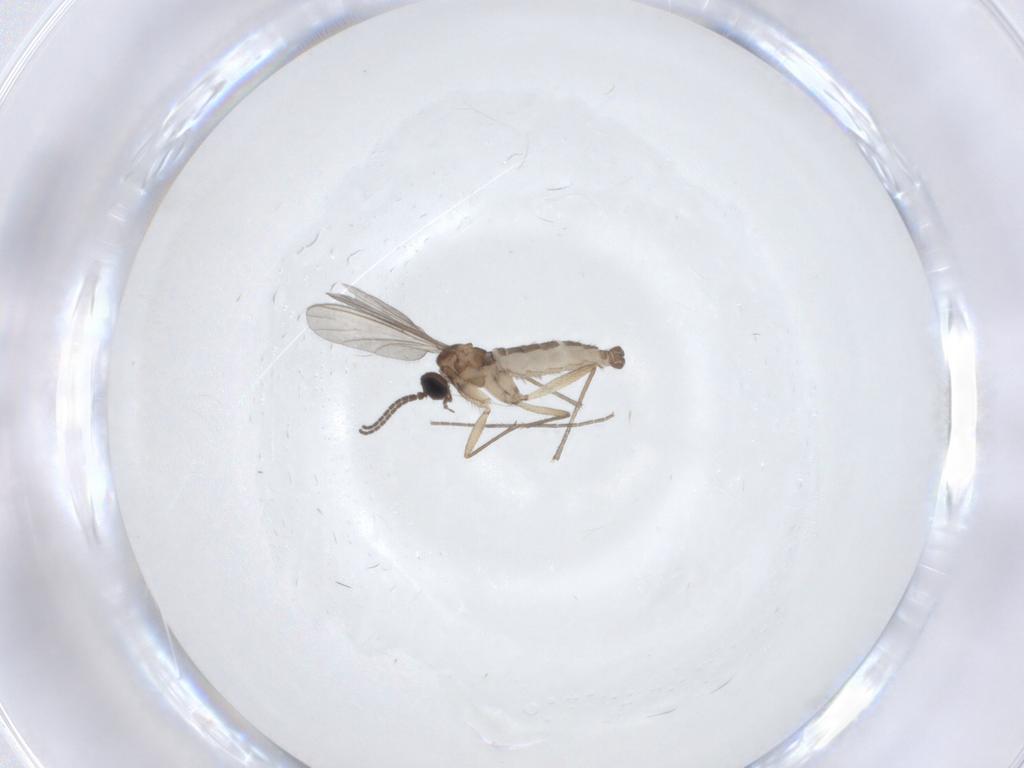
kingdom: Animalia
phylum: Arthropoda
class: Insecta
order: Diptera
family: Sciaridae
